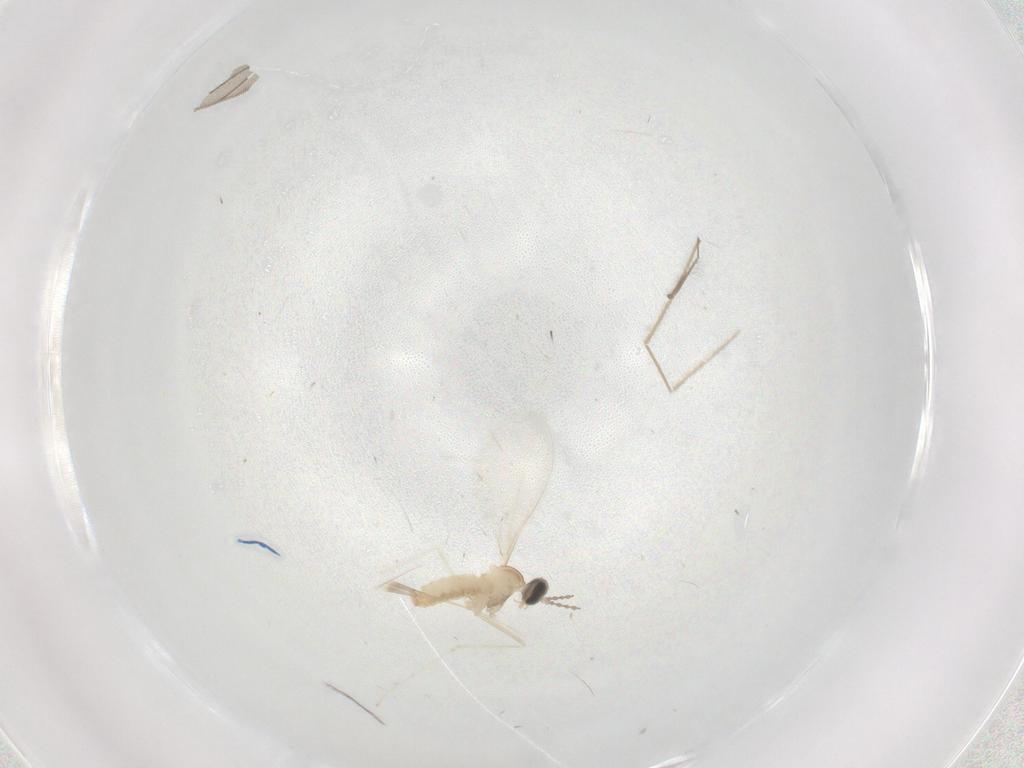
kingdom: Animalia
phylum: Arthropoda
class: Insecta
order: Diptera
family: Cecidomyiidae
